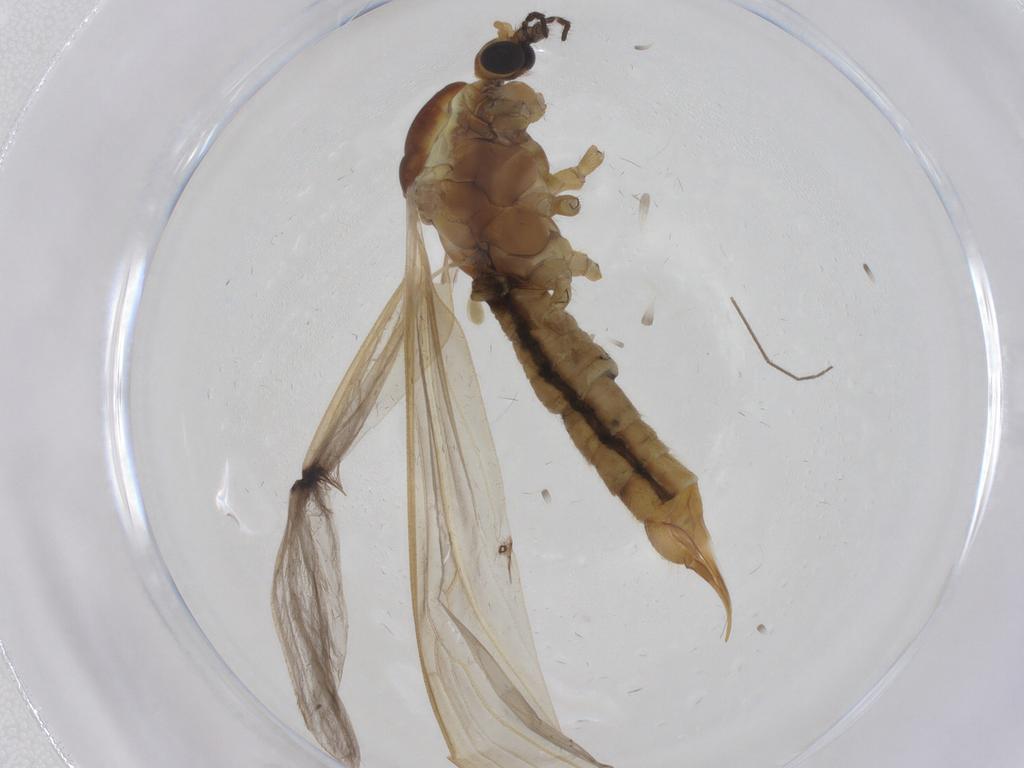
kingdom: Animalia
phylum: Arthropoda
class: Insecta
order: Diptera
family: Chironomidae
